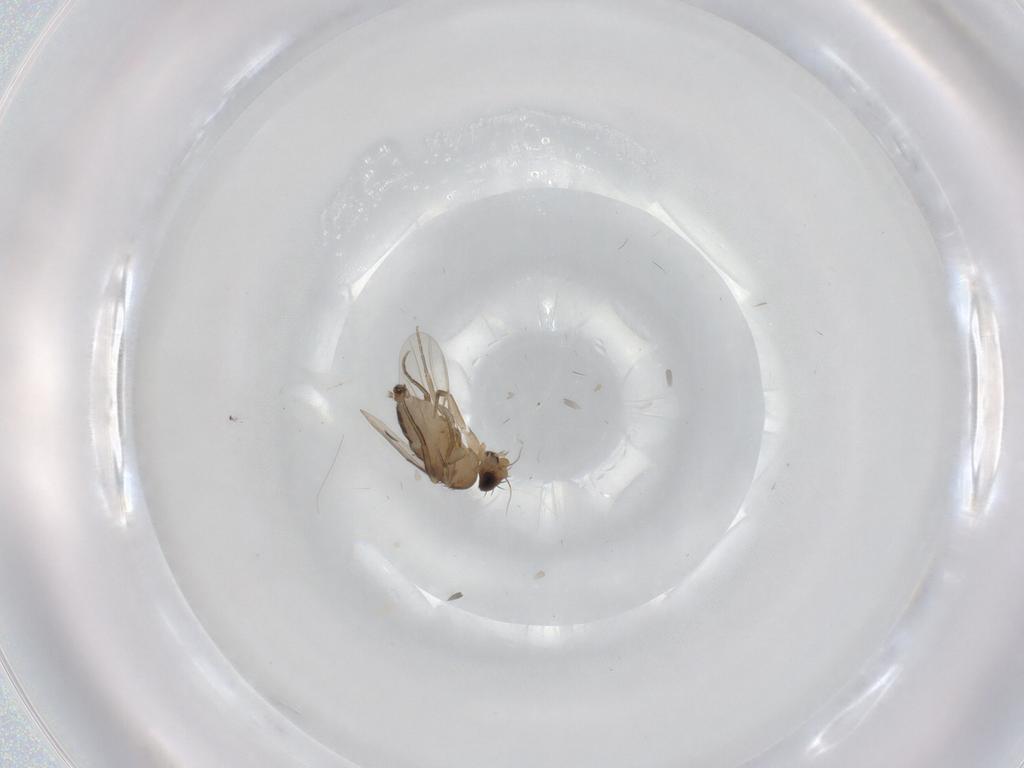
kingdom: Animalia
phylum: Arthropoda
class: Insecta
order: Diptera
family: Phoridae
